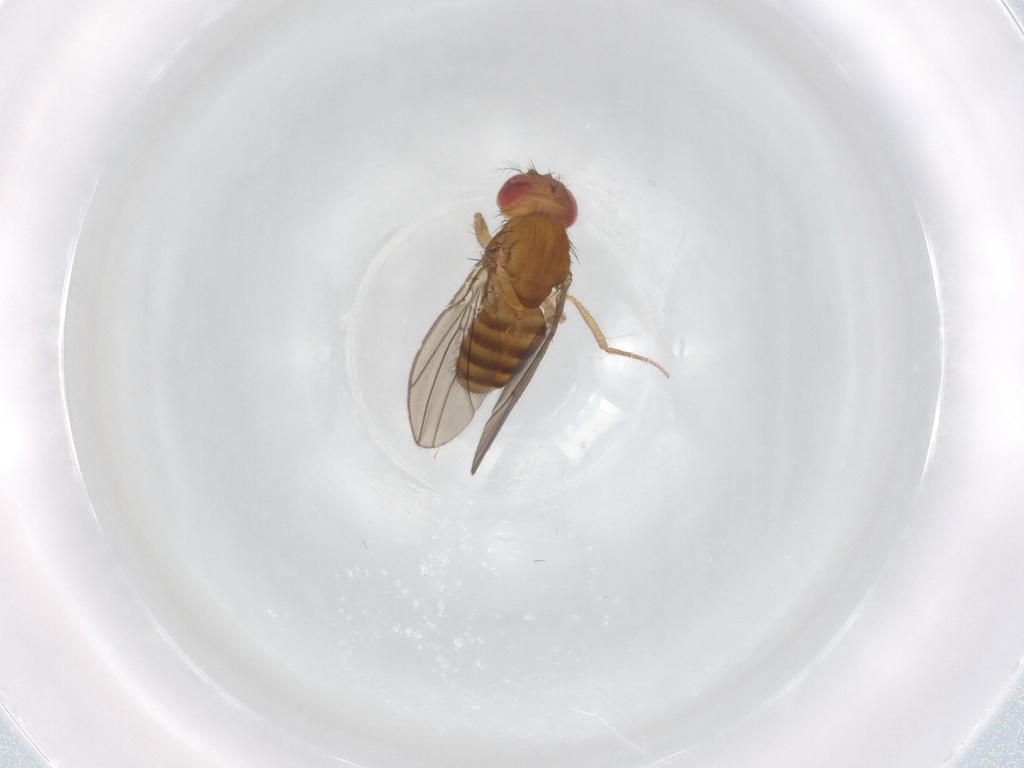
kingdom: Animalia
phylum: Arthropoda
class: Insecta
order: Diptera
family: Drosophilidae
